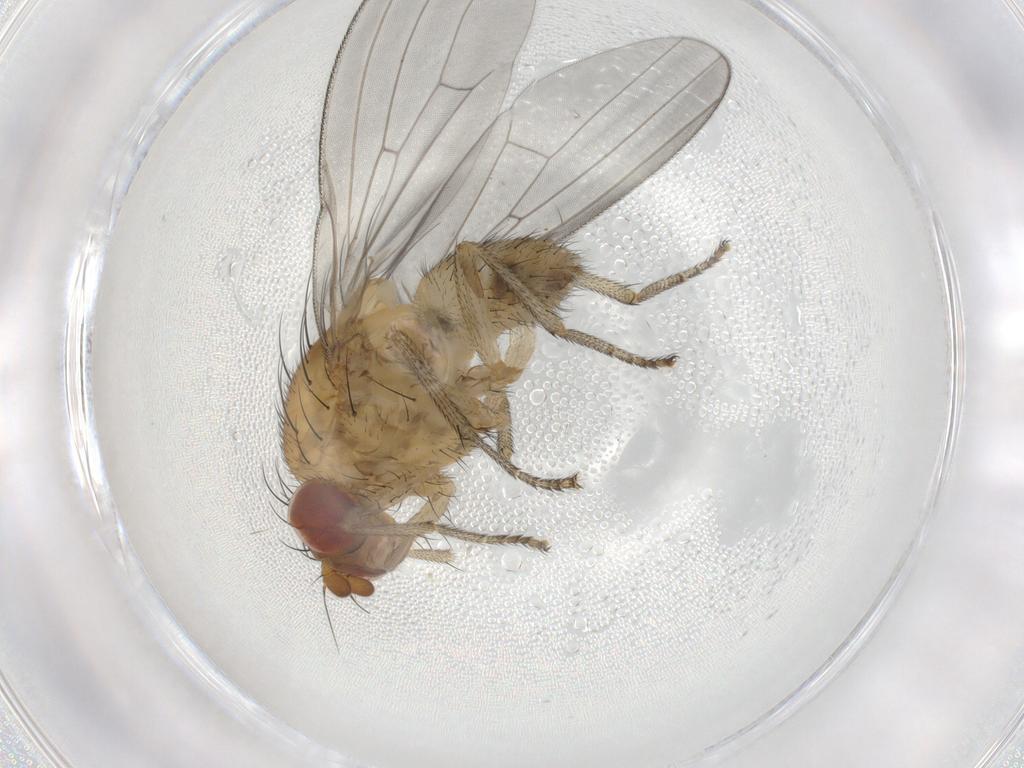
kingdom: Animalia
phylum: Arthropoda
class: Insecta
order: Diptera
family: Lauxaniidae
